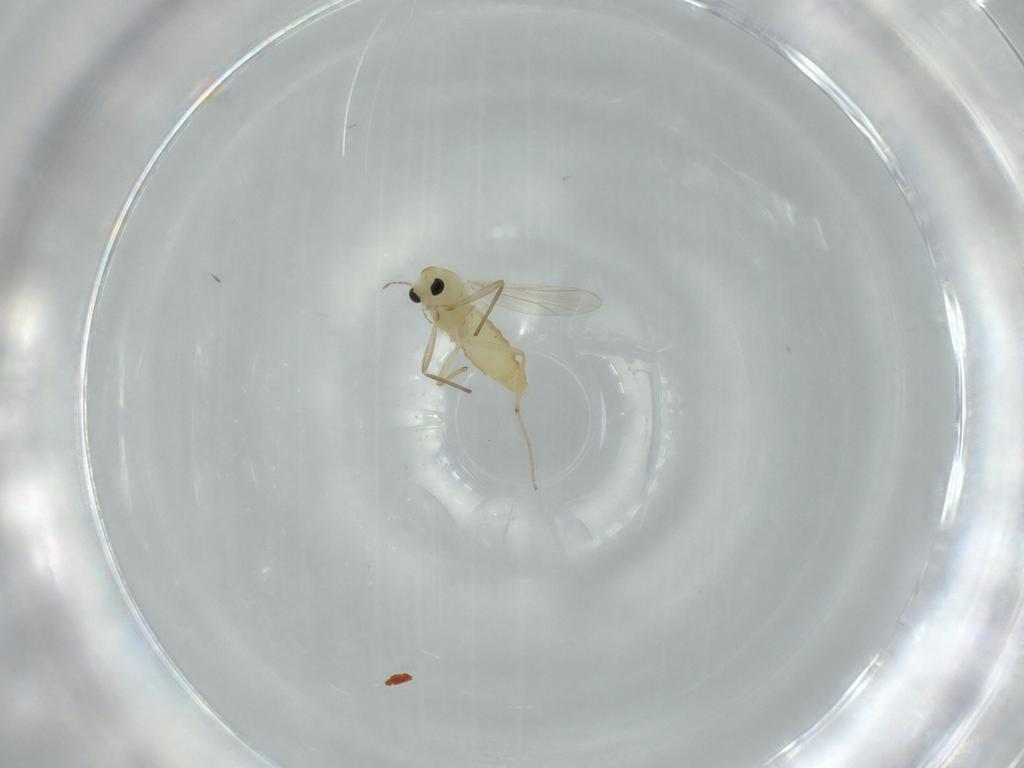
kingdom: Animalia
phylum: Arthropoda
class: Insecta
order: Diptera
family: Chironomidae
